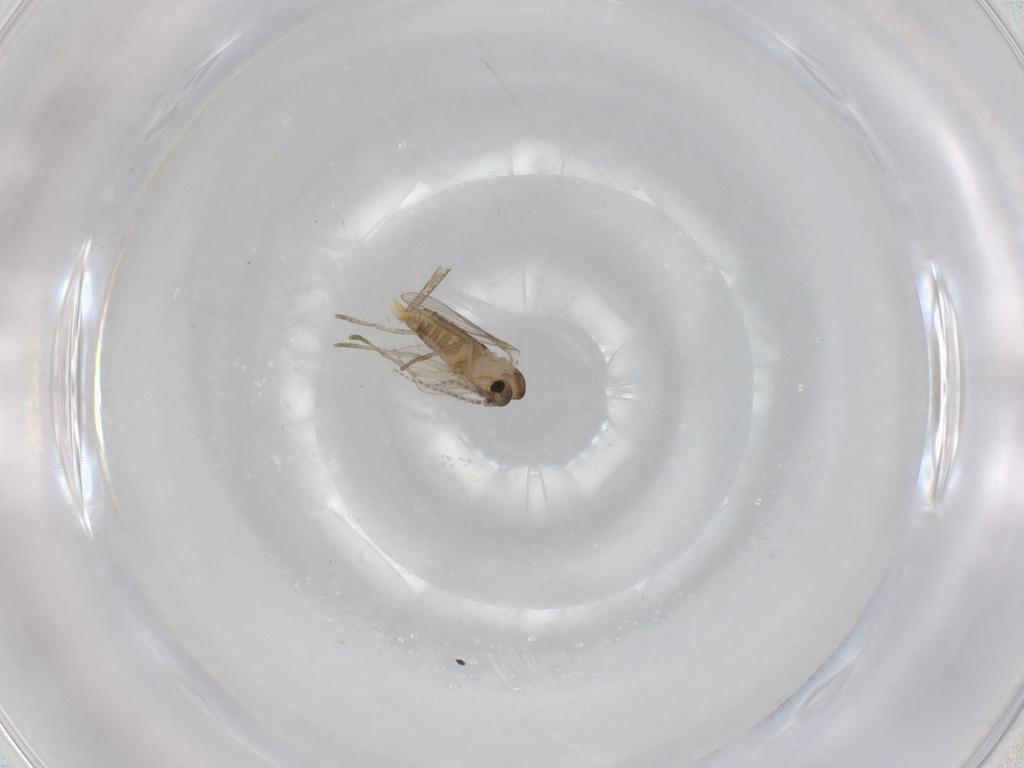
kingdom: Animalia
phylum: Arthropoda
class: Insecta
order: Diptera
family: Psychodidae
